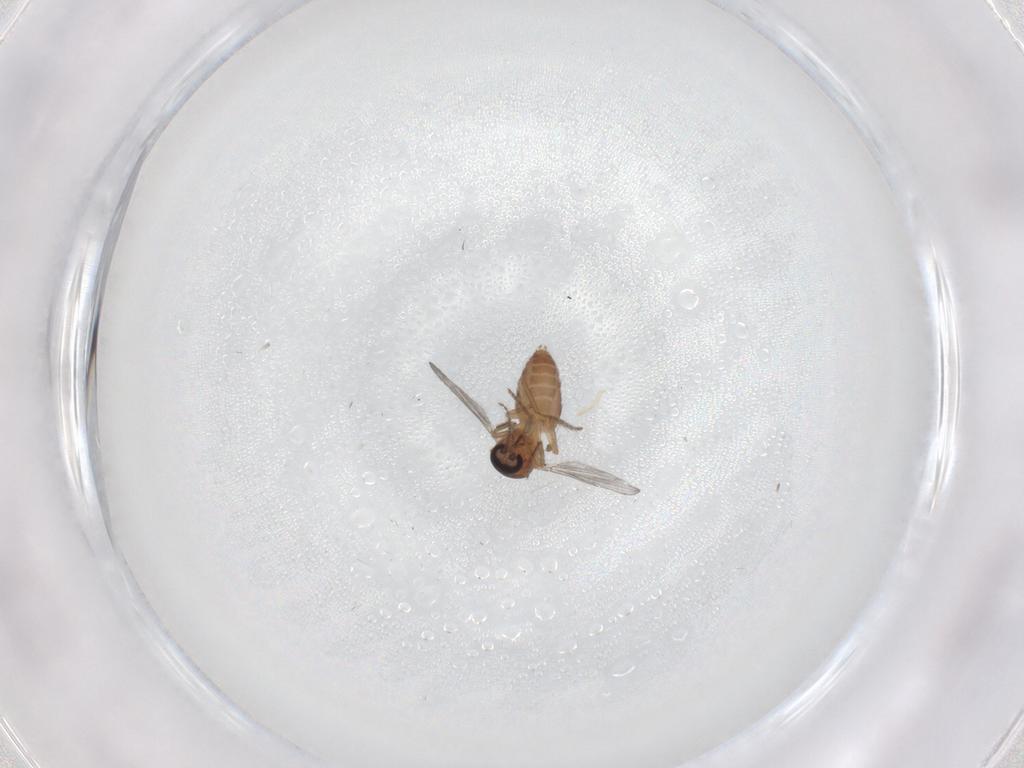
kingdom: Animalia
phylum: Arthropoda
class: Insecta
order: Diptera
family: Ceratopogonidae
